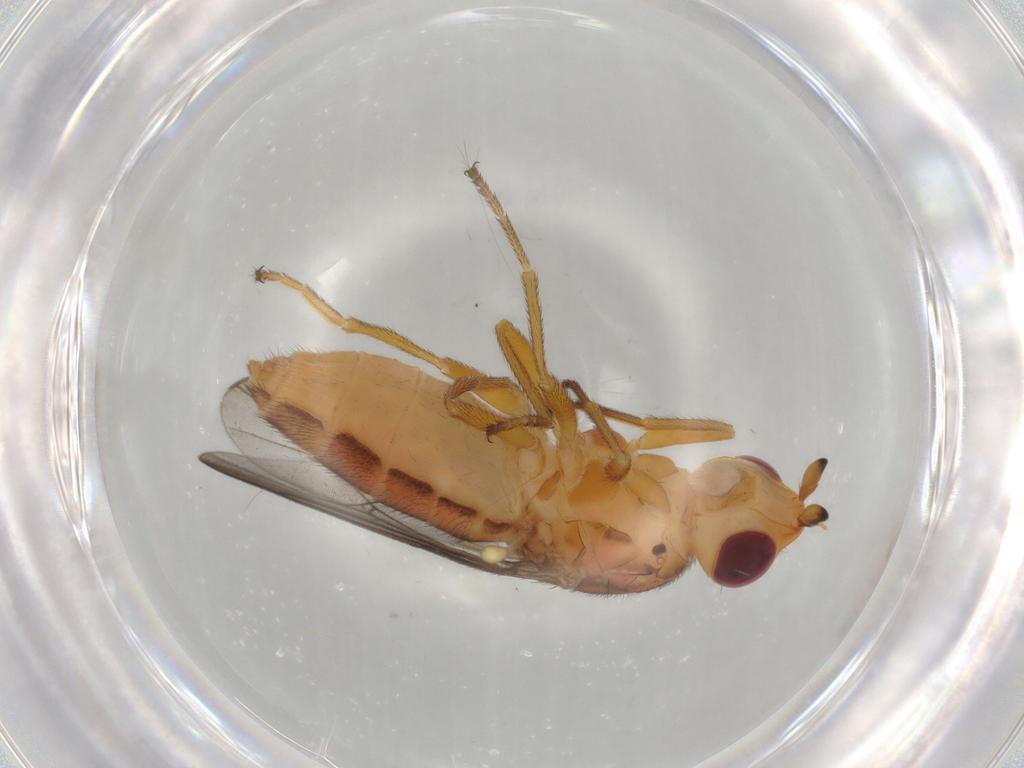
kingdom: Animalia
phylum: Arthropoda
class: Insecta
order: Diptera
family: Chloropidae
